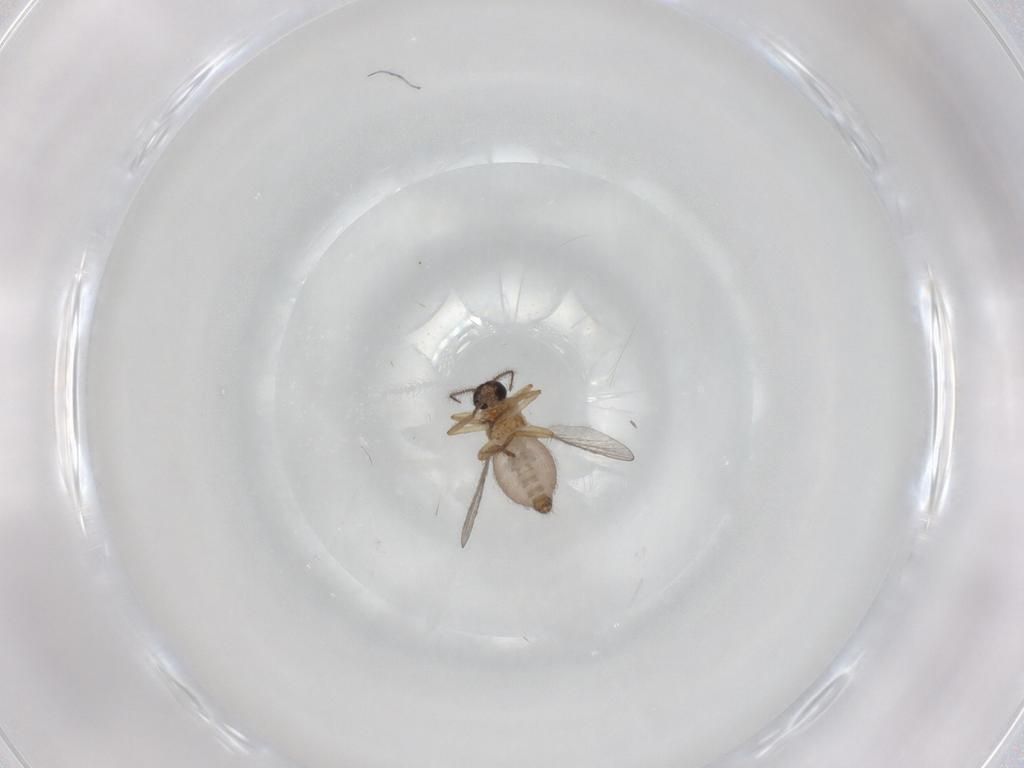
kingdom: Animalia
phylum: Arthropoda
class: Insecta
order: Diptera
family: Ceratopogonidae
